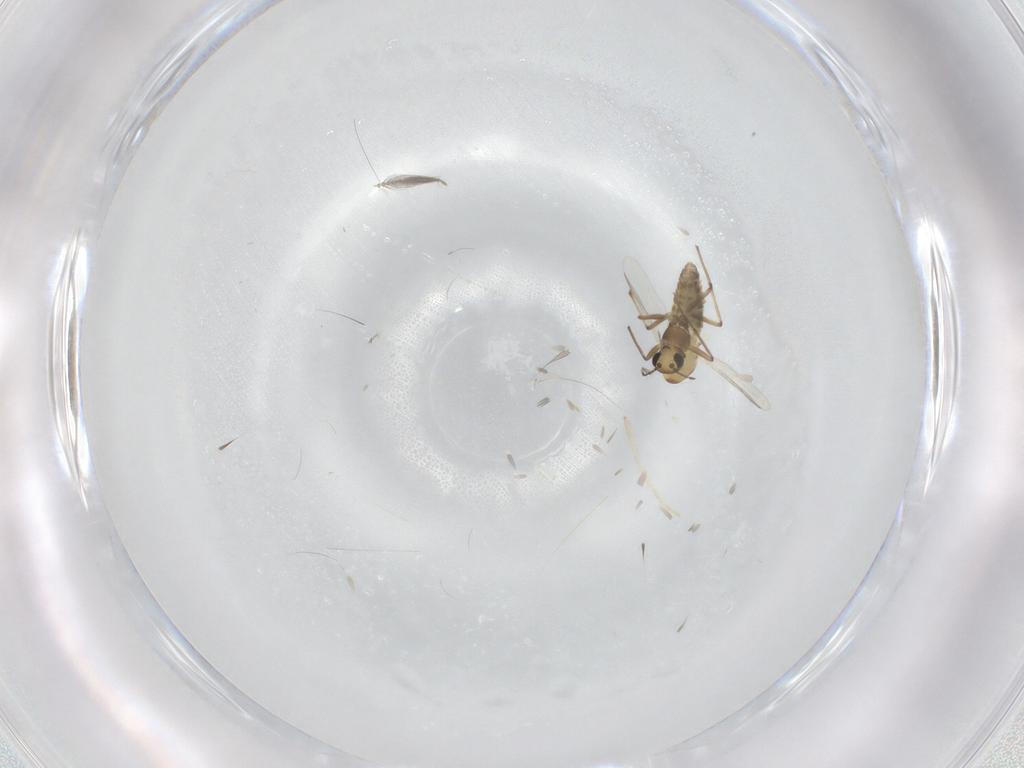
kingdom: Animalia
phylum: Arthropoda
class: Insecta
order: Diptera
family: Chironomidae
